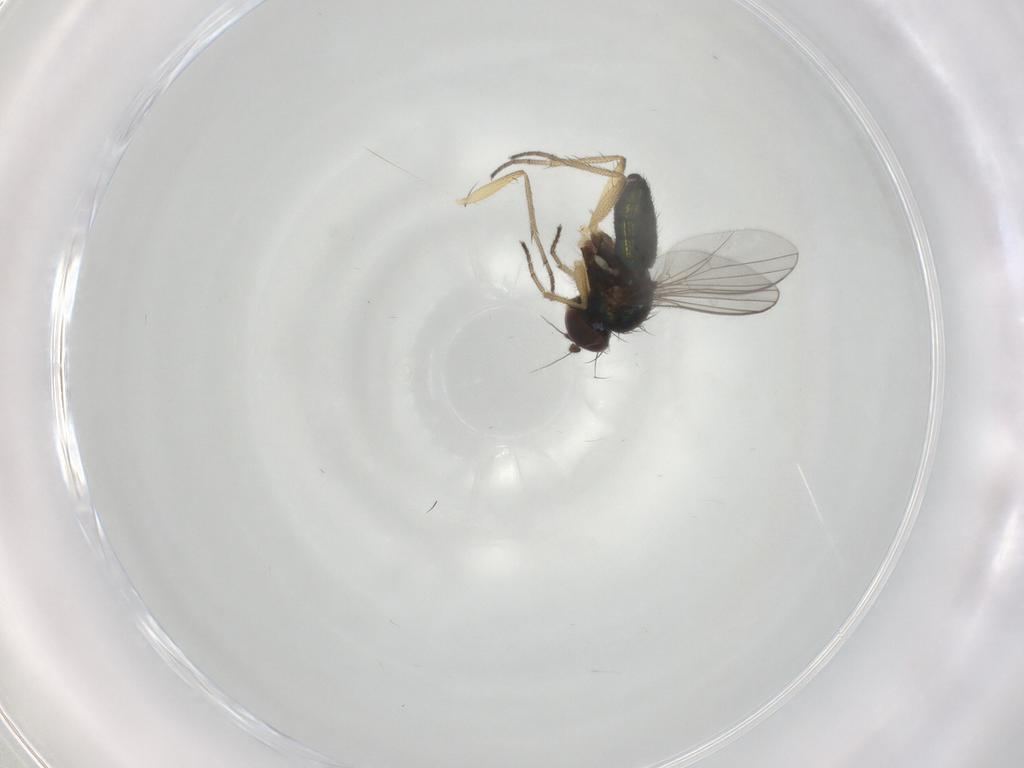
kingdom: Animalia
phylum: Arthropoda
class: Insecta
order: Diptera
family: Dolichopodidae
